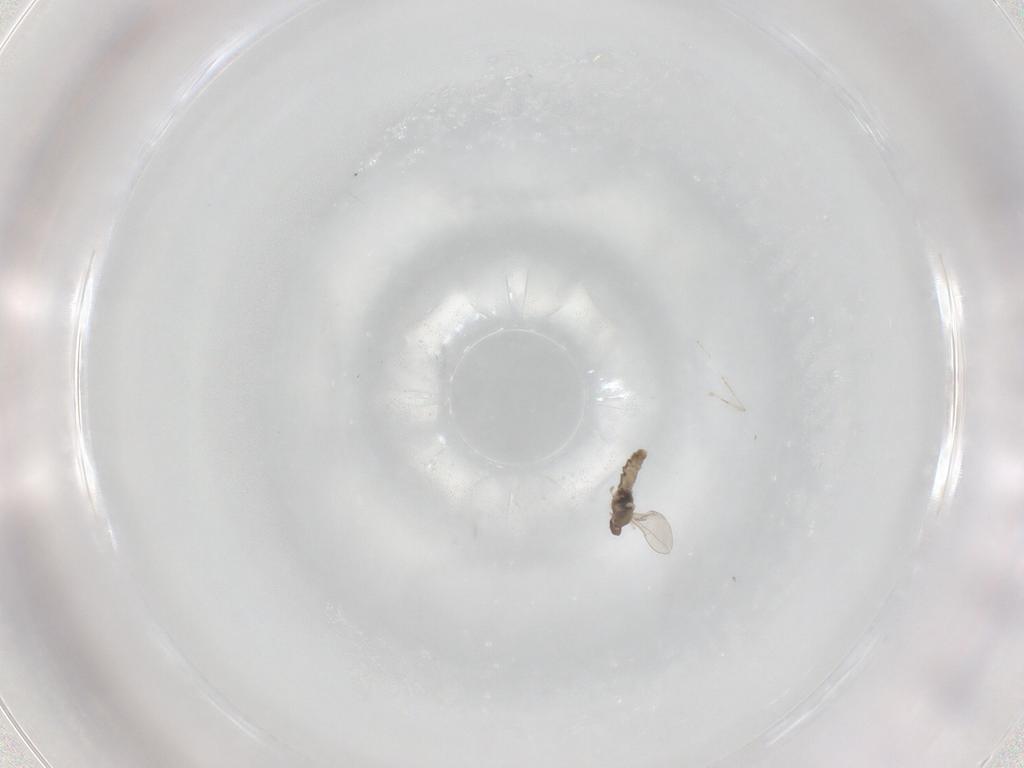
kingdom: Animalia
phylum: Arthropoda
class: Insecta
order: Diptera
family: Cecidomyiidae
